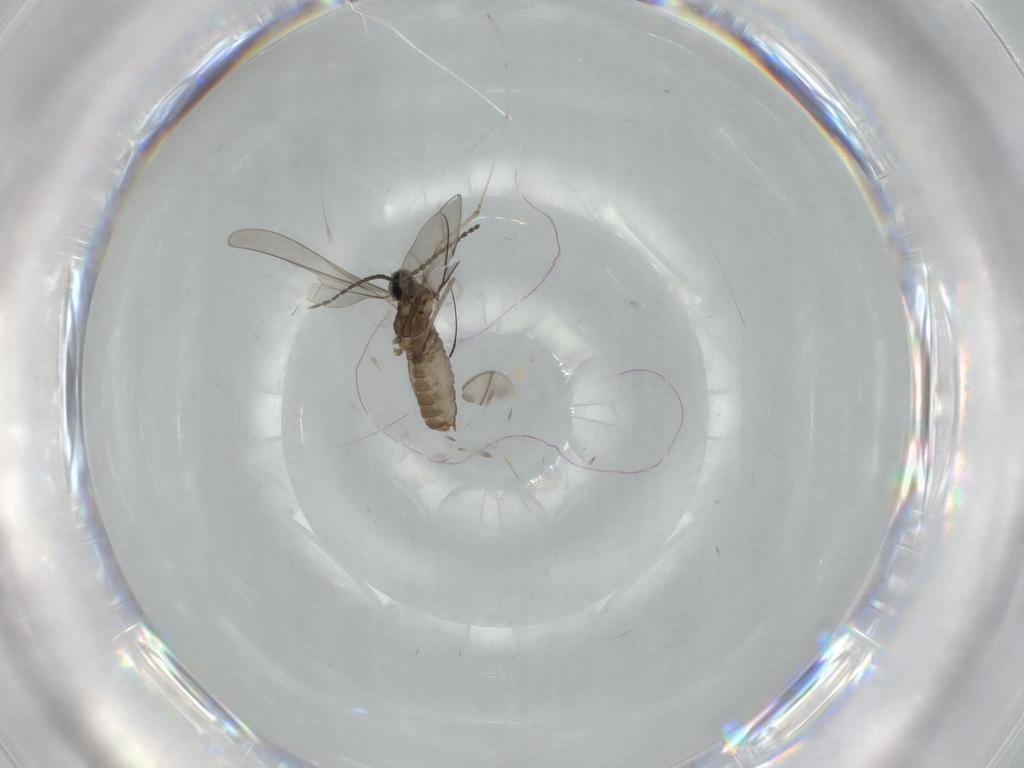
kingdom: Animalia
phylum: Arthropoda
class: Insecta
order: Diptera
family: Cecidomyiidae
